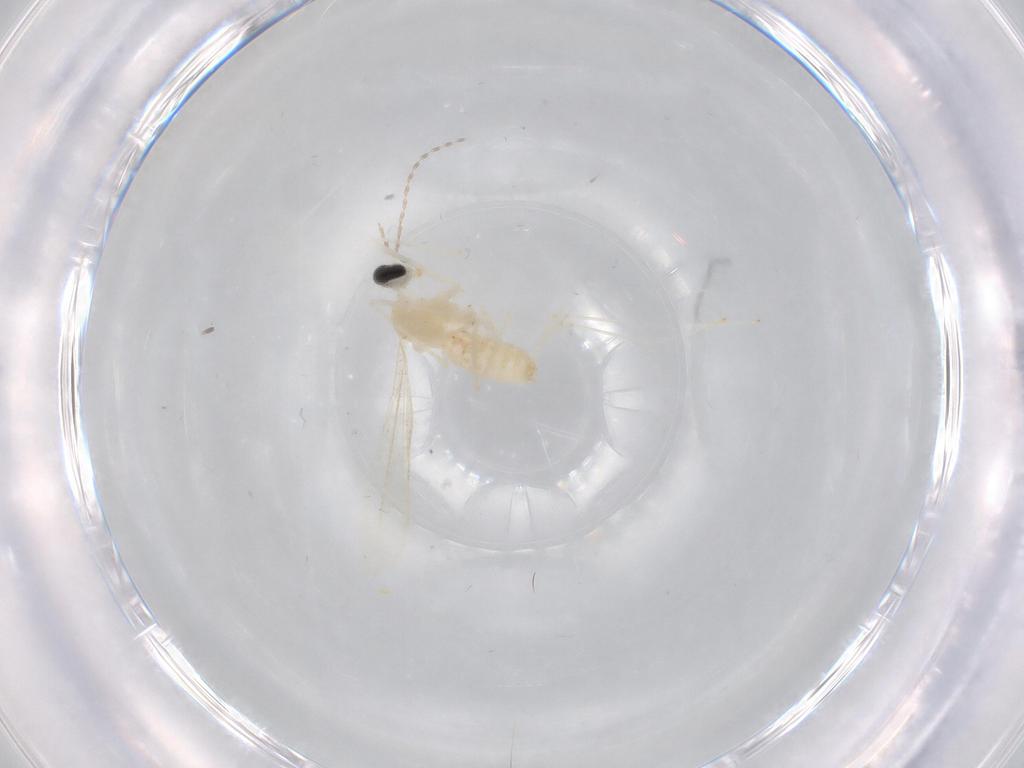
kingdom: Animalia
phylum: Arthropoda
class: Insecta
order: Diptera
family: Cecidomyiidae
